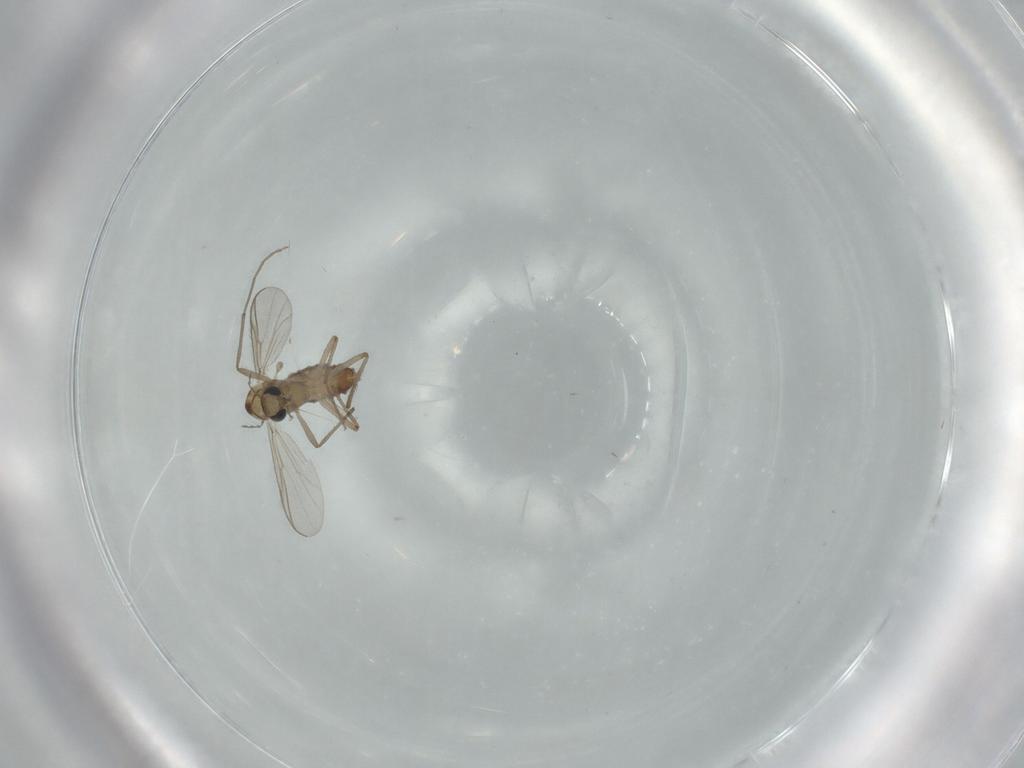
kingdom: Animalia
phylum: Arthropoda
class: Insecta
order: Diptera
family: Chironomidae
